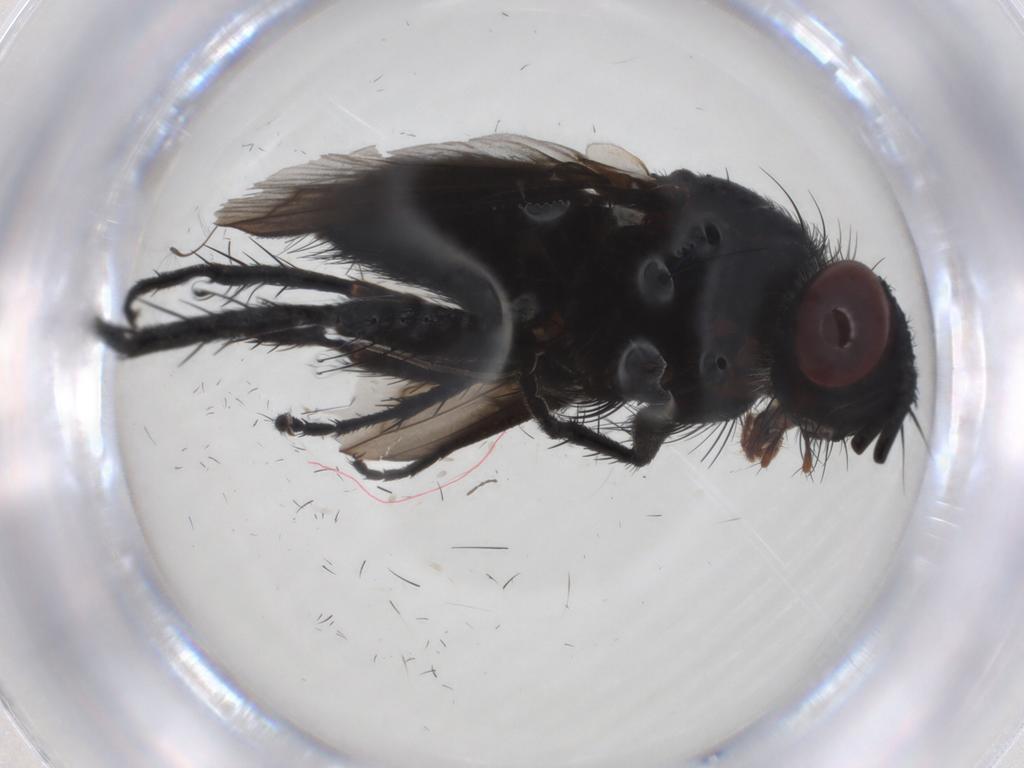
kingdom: Animalia
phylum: Arthropoda
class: Insecta
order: Diptera
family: Tachinidae
